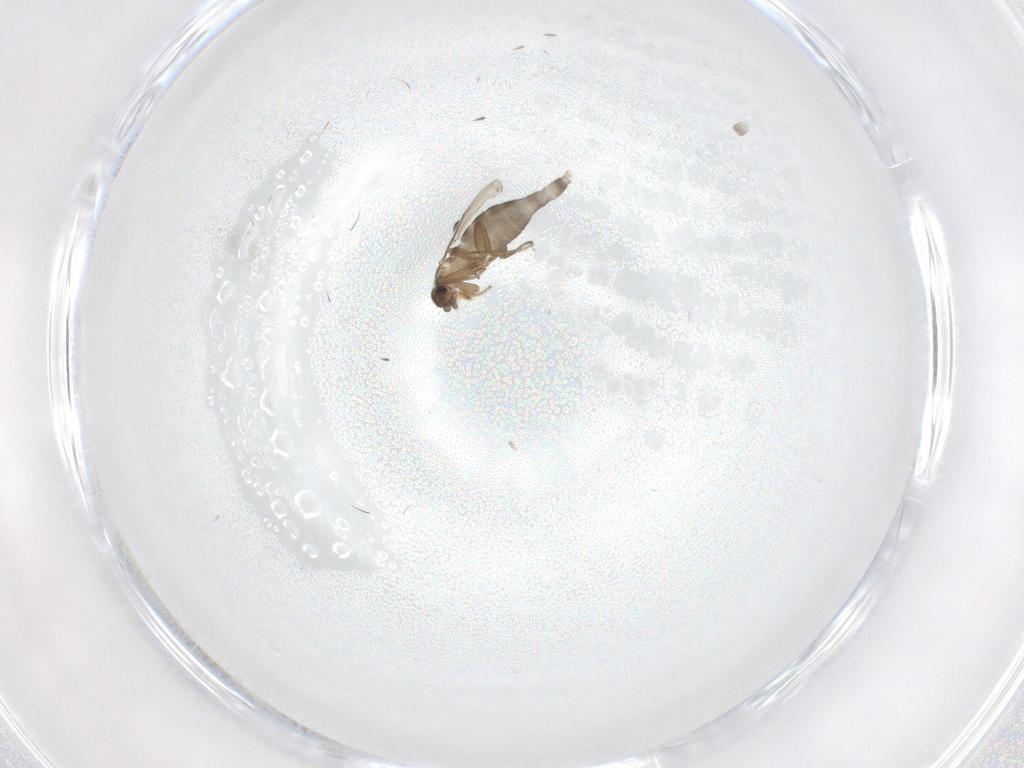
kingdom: Animalia
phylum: Arthropoda
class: Insecta
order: Diptera
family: Phoridae
